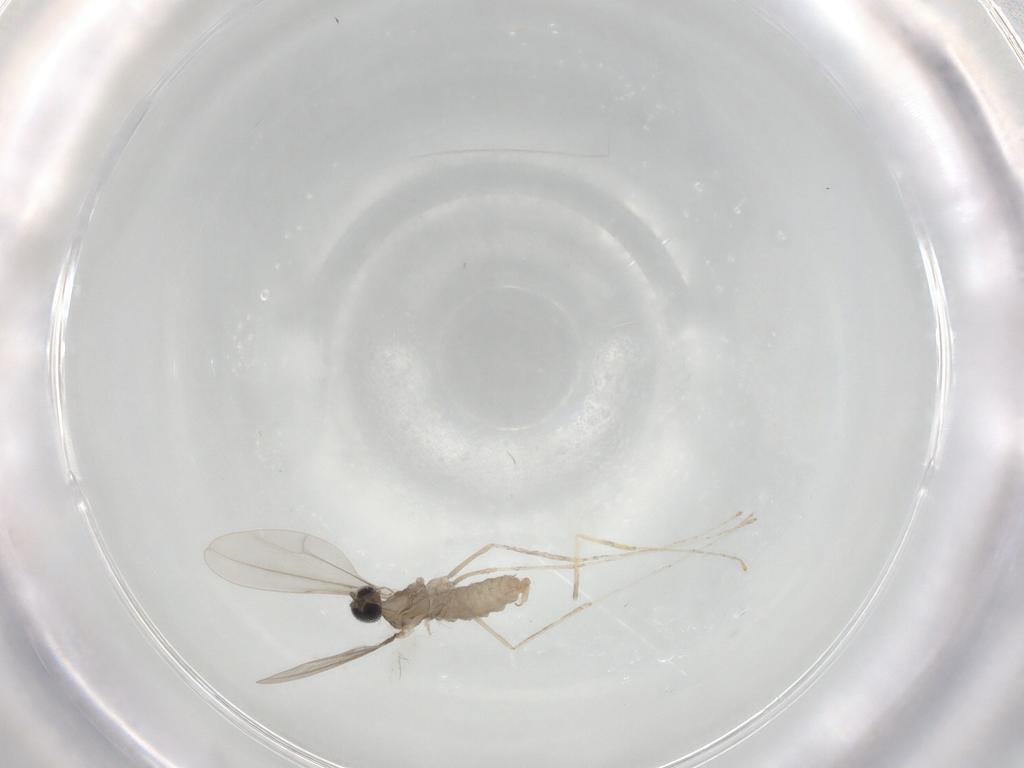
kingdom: Animalia
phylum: Arthropoda
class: Insecta
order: Diptera
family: Cecidomyiidae
